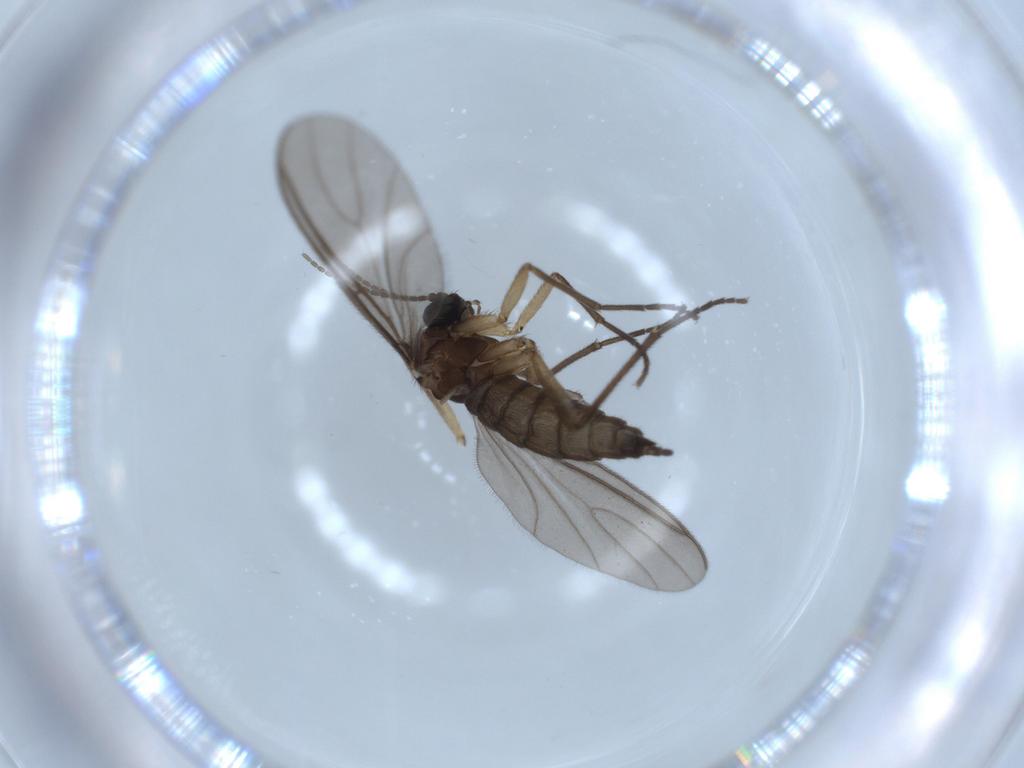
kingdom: Animalia
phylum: Arthropoda
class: Insecta
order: Diptera
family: Sciaridae
